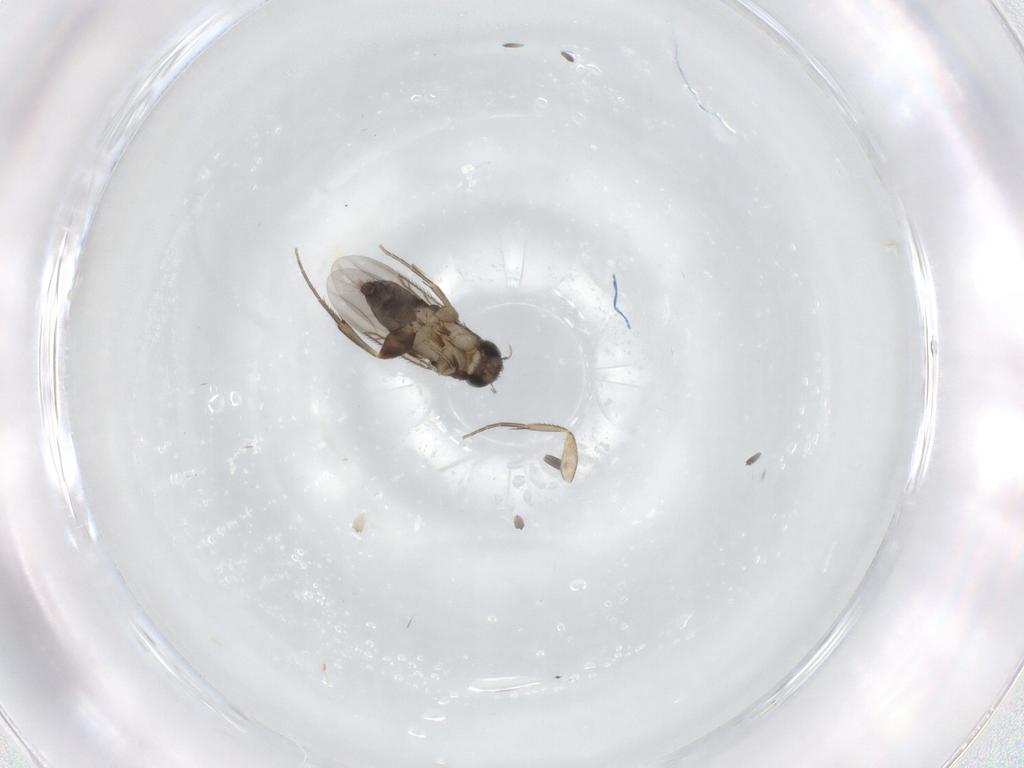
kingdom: Animalia
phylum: Arthropoda
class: Insecta
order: Diptera
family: Phoridae
